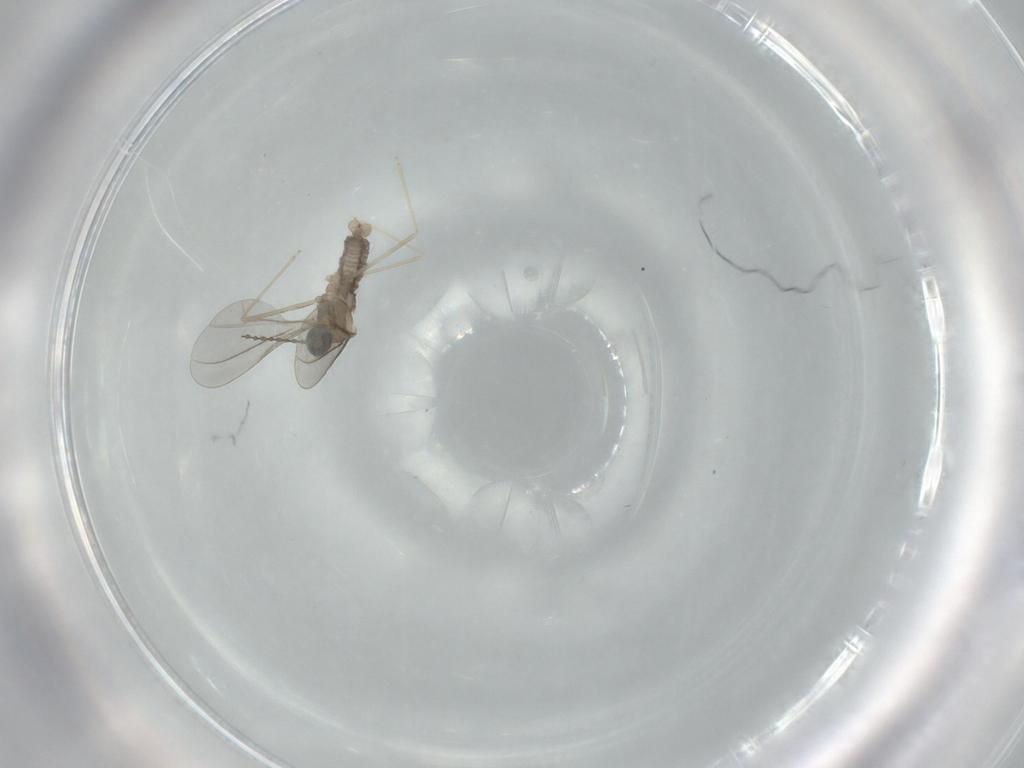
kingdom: Animalia
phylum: Arthropoda
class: Insecta
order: Diptera
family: Cecidomyiidae
